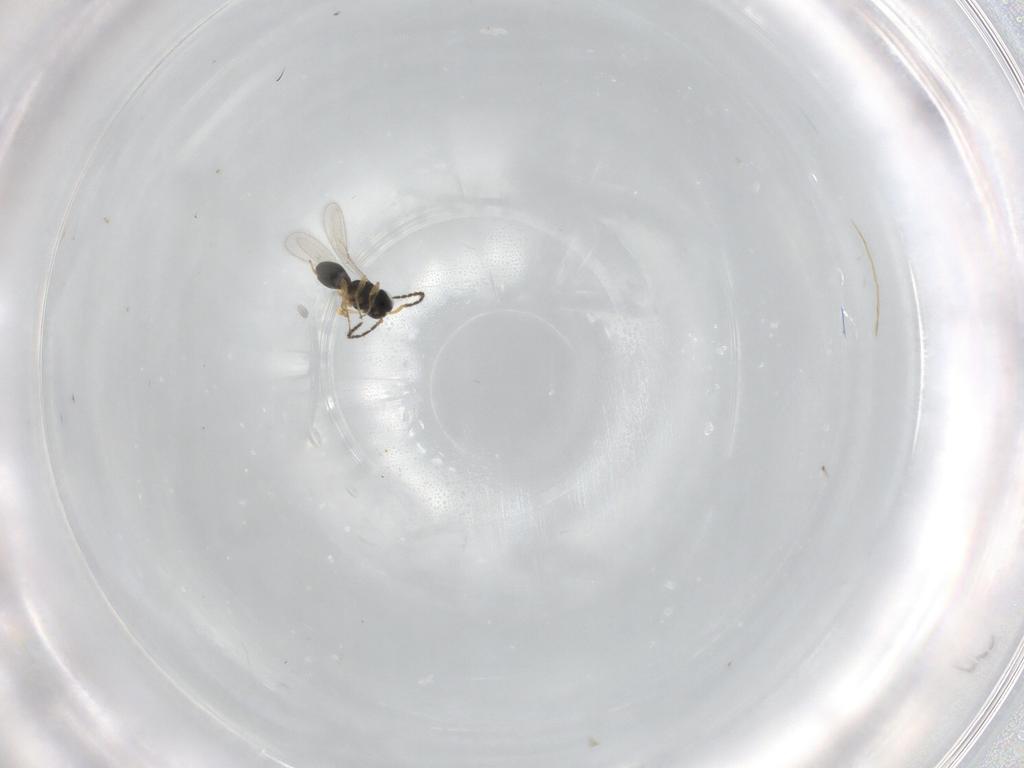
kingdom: Animalia
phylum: Arthropoda
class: Insecta
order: Hymenoptera
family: Scelionidae
